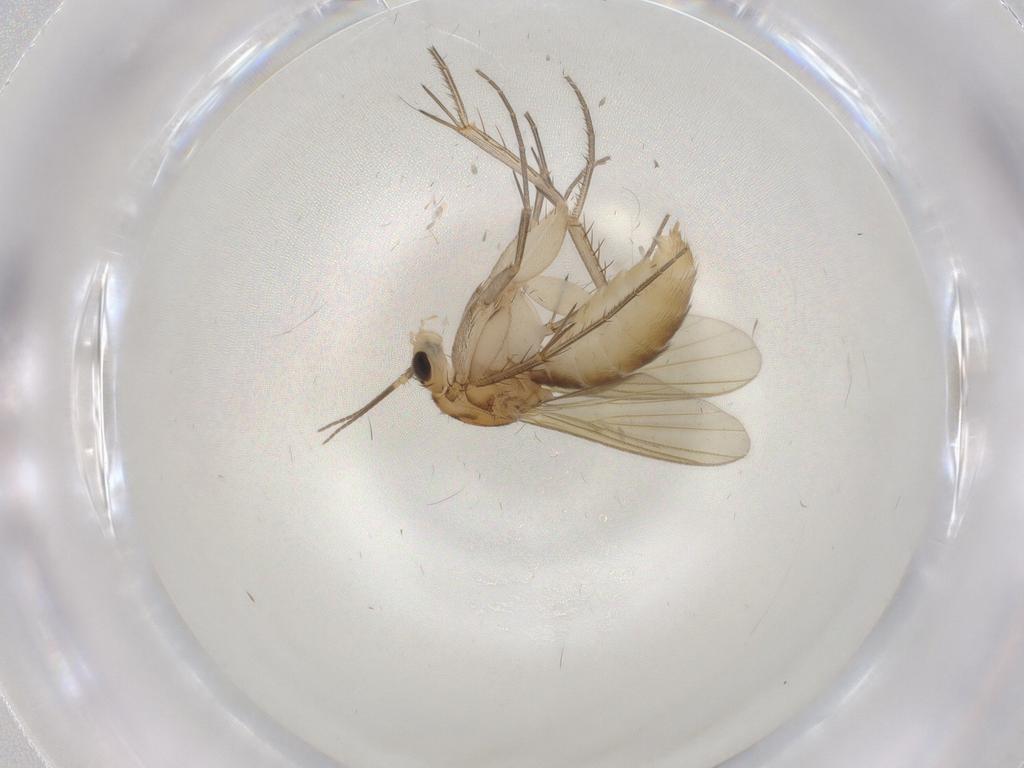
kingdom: Animalia
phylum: Arthropoda
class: Insecta
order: Diptera
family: Mycetophilidae
